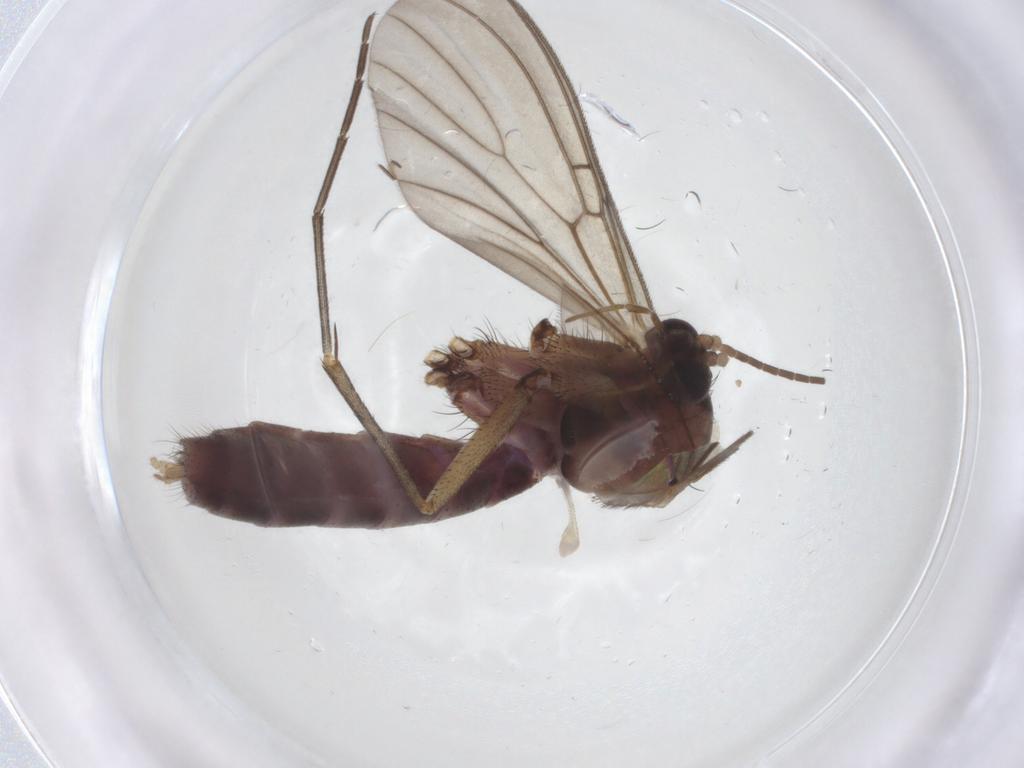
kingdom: Animalia
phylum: Arthropoda
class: Insecta
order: Diptera
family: Mycetophilidae
